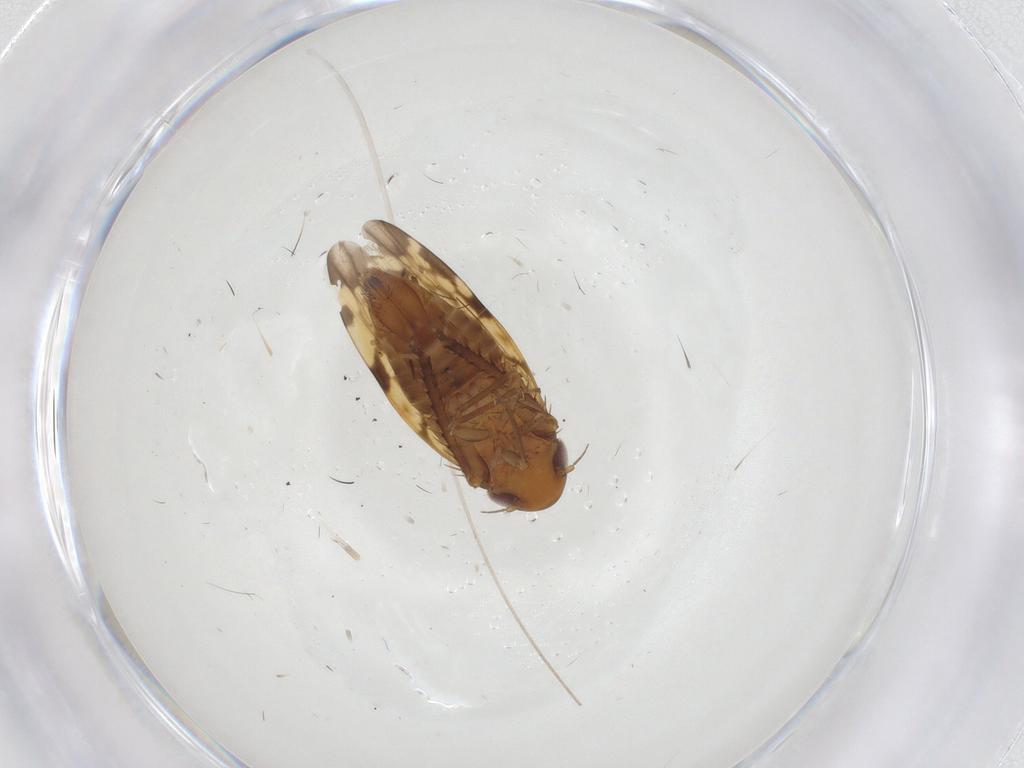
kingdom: Animalia
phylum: Arthropoda
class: Insecta
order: Hemiptera
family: Cicadellidae
